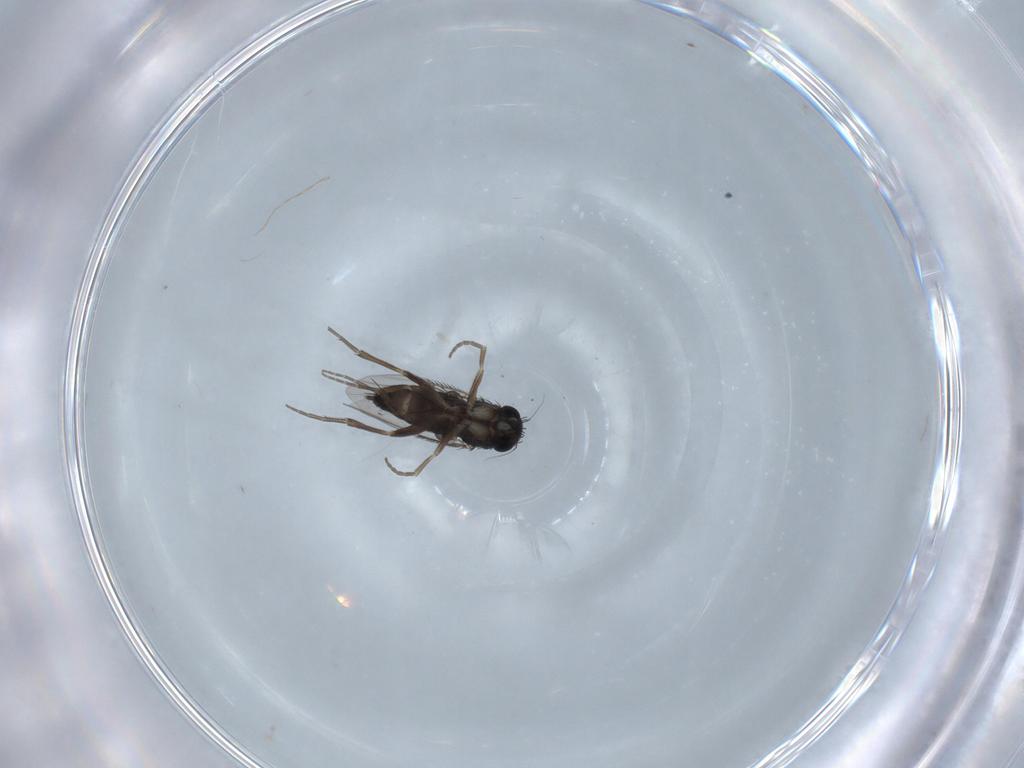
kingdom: Animalia
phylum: Arthropoda
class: Insecta
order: Diptera
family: Phoridae
